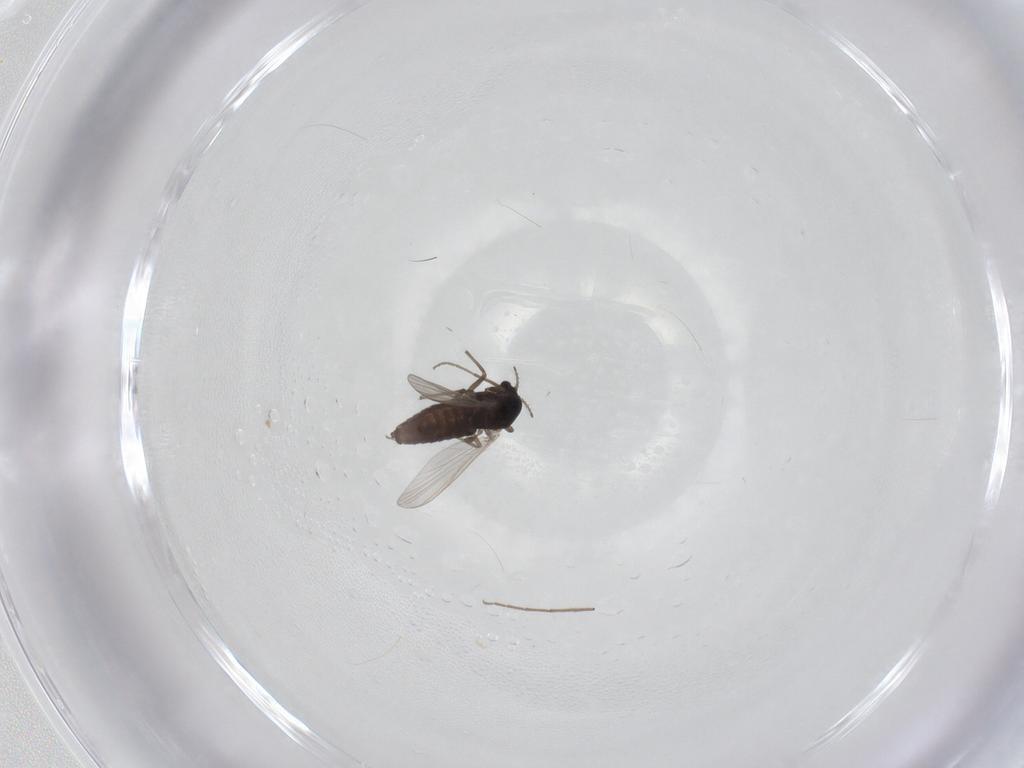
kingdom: Animalia
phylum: Arthropoda
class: Insecta
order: Diptera
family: Chironomidae
